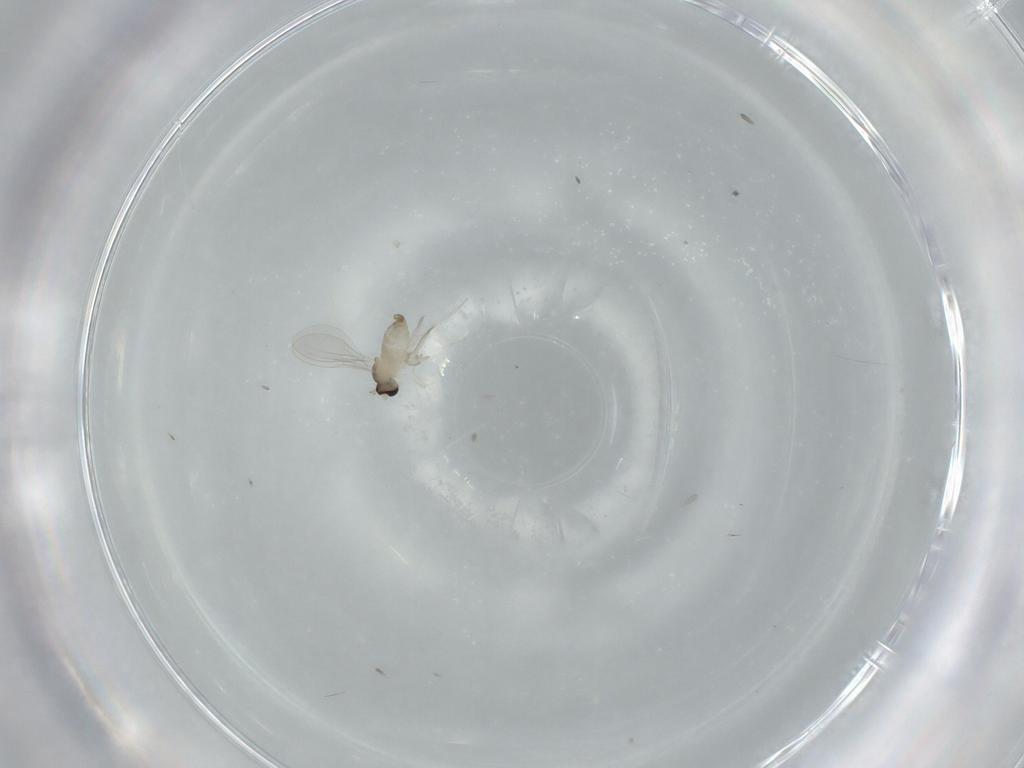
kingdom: Animalia
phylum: Arthropoda
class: Insecta
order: Diptera
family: Cecidomyiidae
